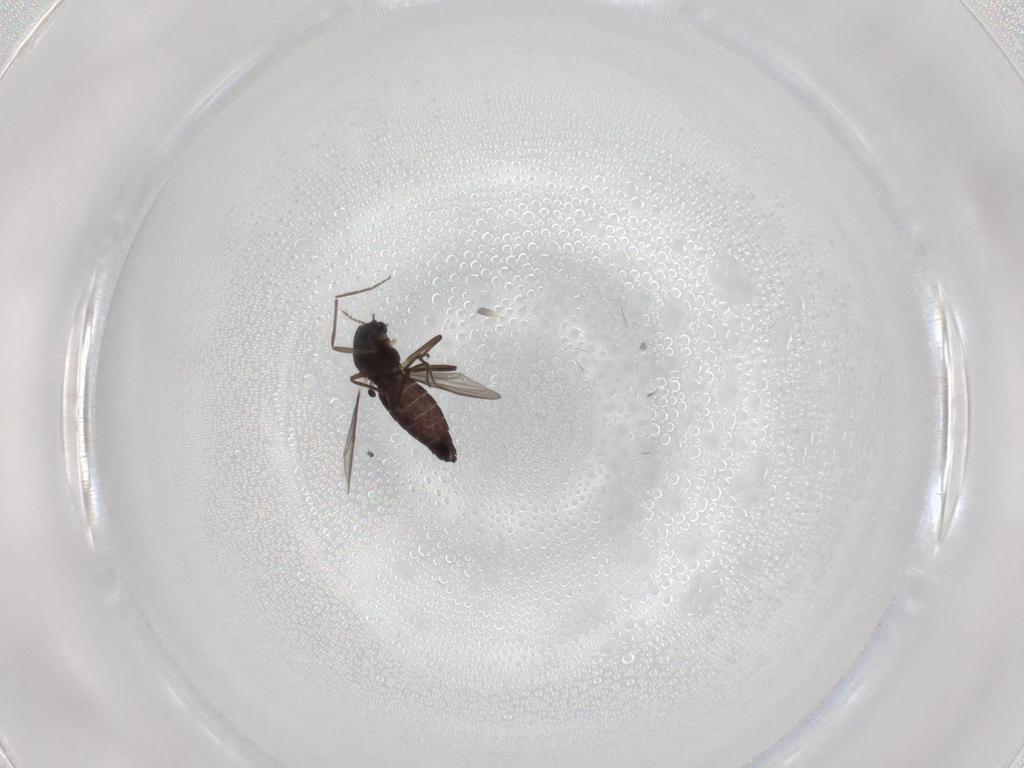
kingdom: Animalia
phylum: Arthropoda
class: Insecta
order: Diptera
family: Chironomidae
